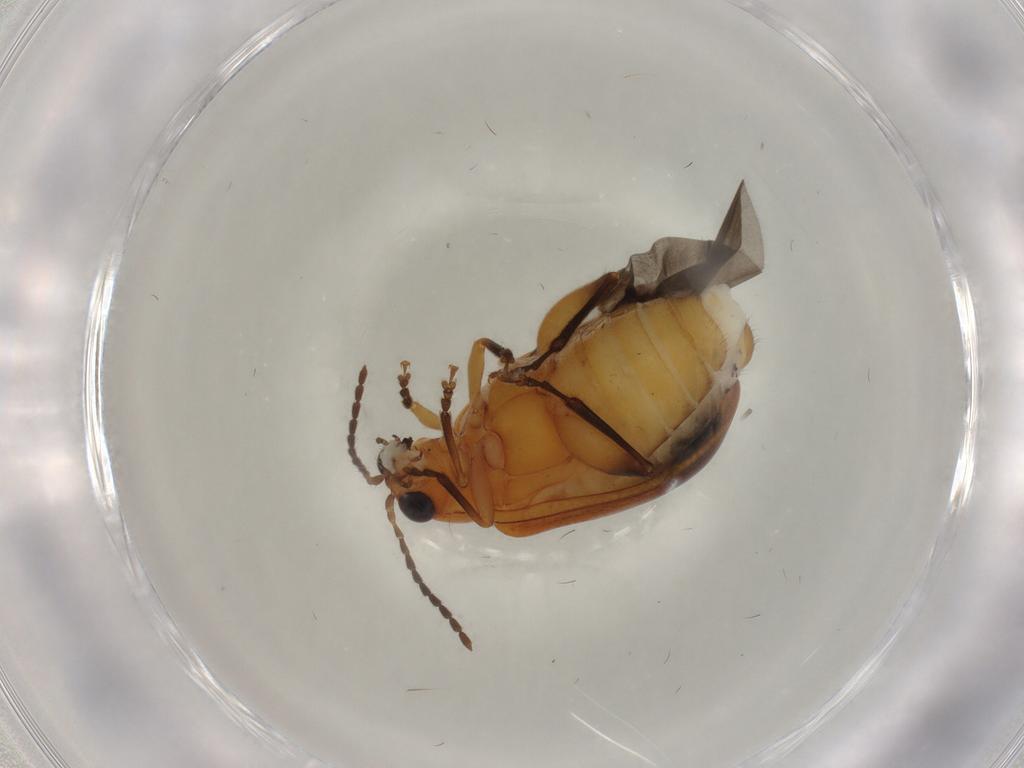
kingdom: Animalia
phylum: Arthropoda
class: Insecta
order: Coleoptera
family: Chrysomelidae
